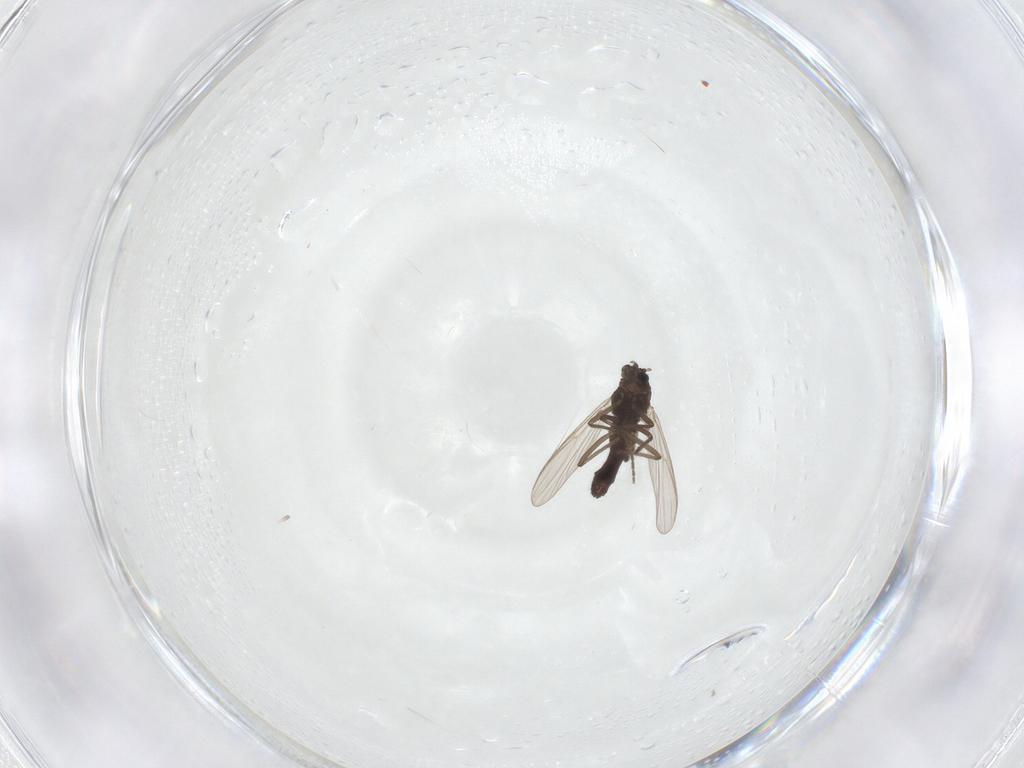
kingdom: Animalia
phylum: Arthropoda
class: Insecta
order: Diptera
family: Chironomidae
